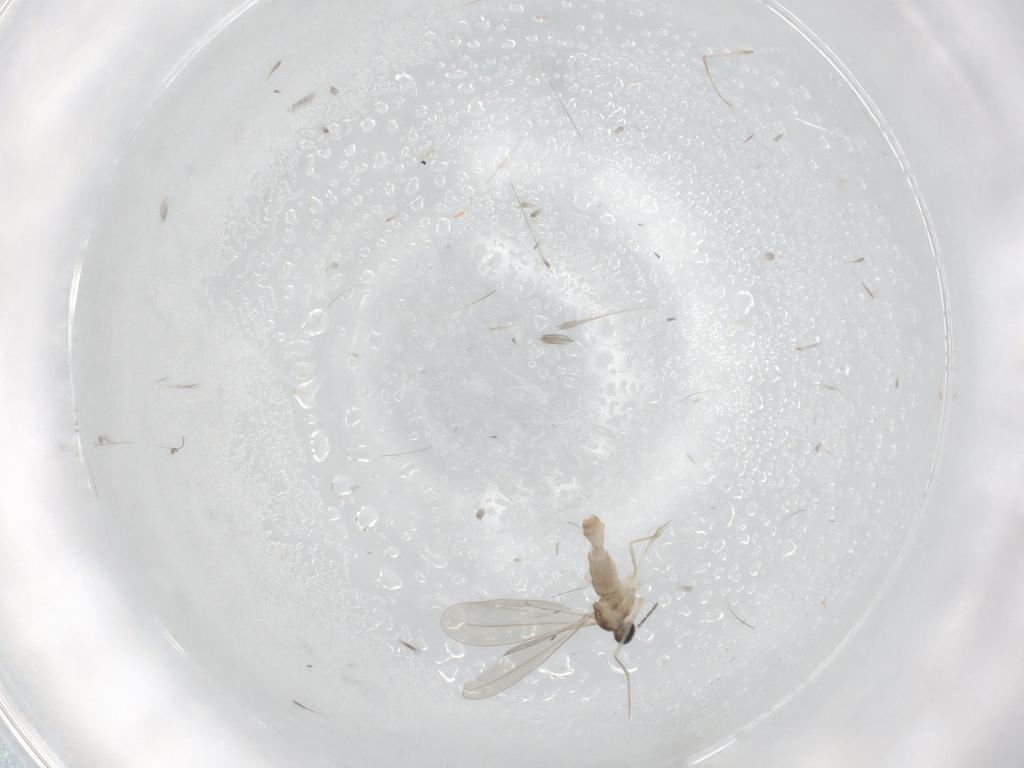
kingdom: Animalia
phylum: Arthropoda
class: Insecta
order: Diptera
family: Cecidomyiidae
